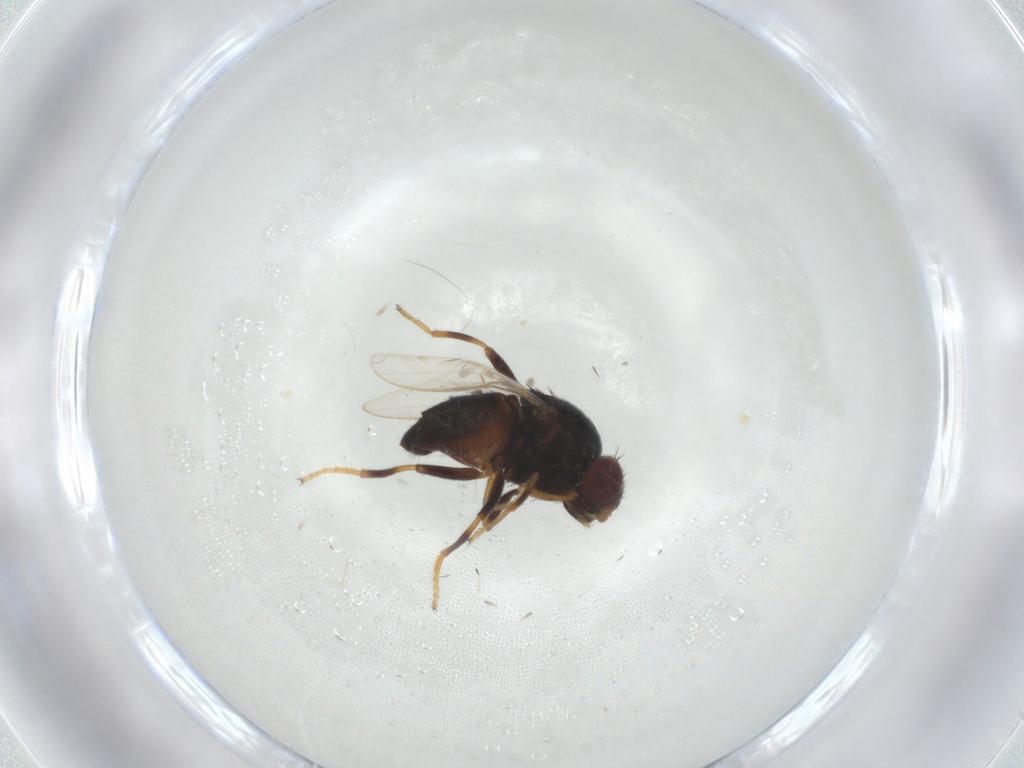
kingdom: Animalia
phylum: Arthropoda
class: Insecta
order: Diptera
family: Chloropidae
